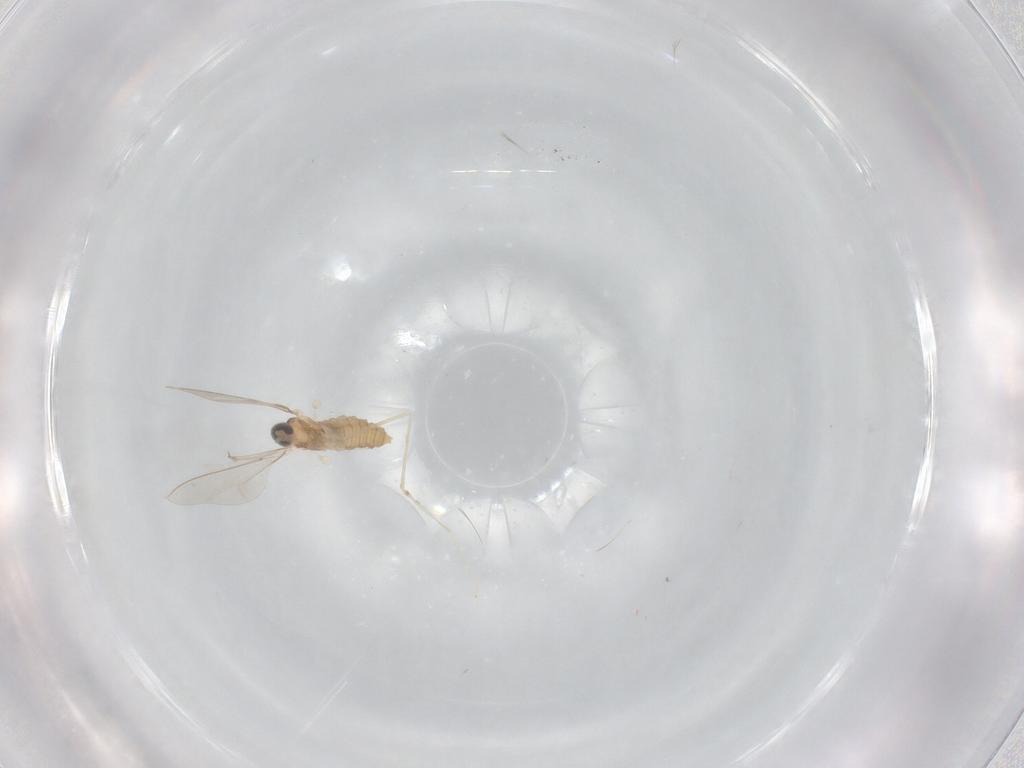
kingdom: Animalia
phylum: Arthropoda
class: Insecta
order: Diptera
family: Cecidomyiidae
